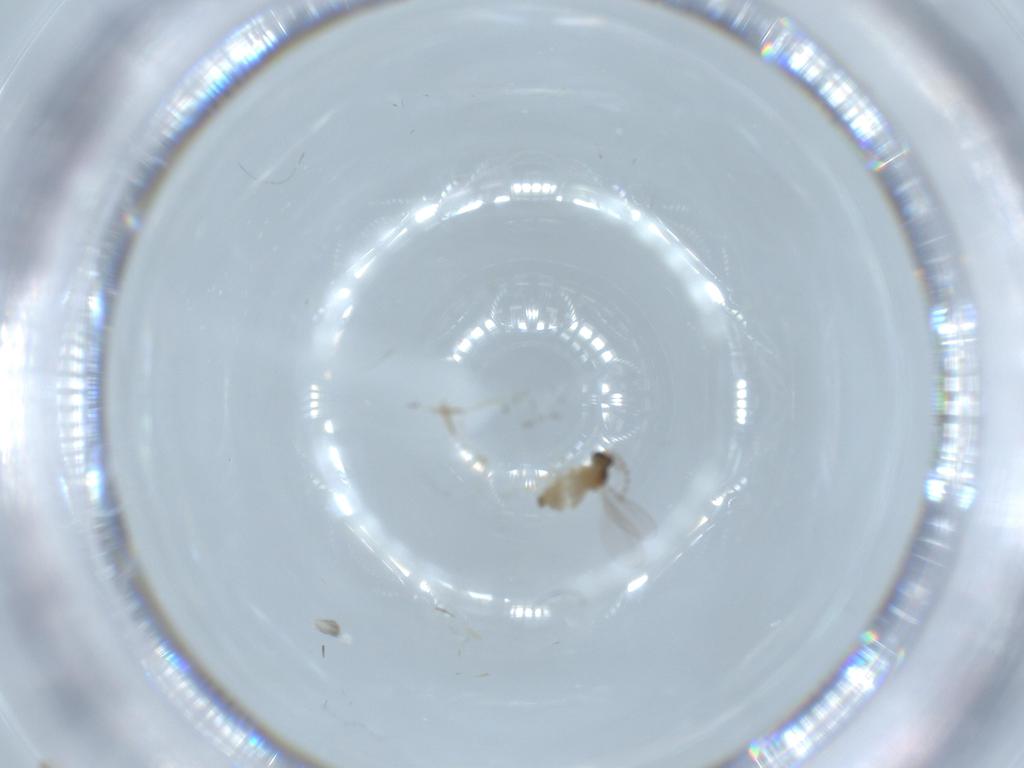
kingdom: Animalia
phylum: Arthropoda
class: Insecta
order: Diptera
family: Cecidomyiidae
